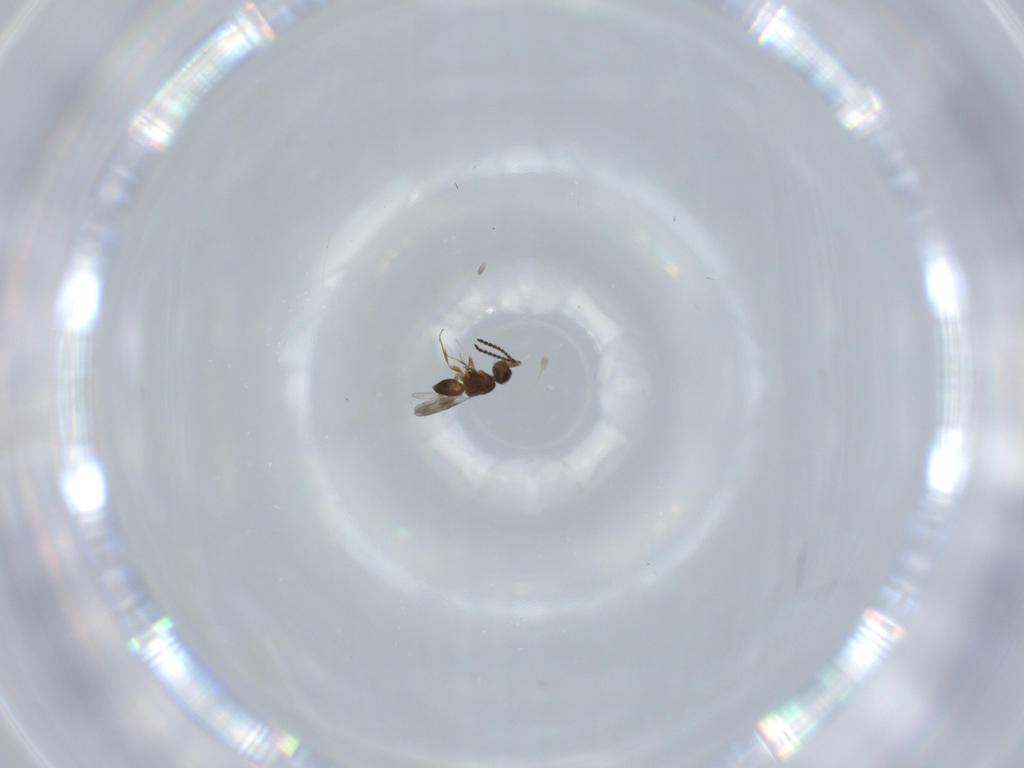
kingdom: Animalia
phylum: Arthropoda
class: Insecta
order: Hymenoptera
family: Ceraphronidae
